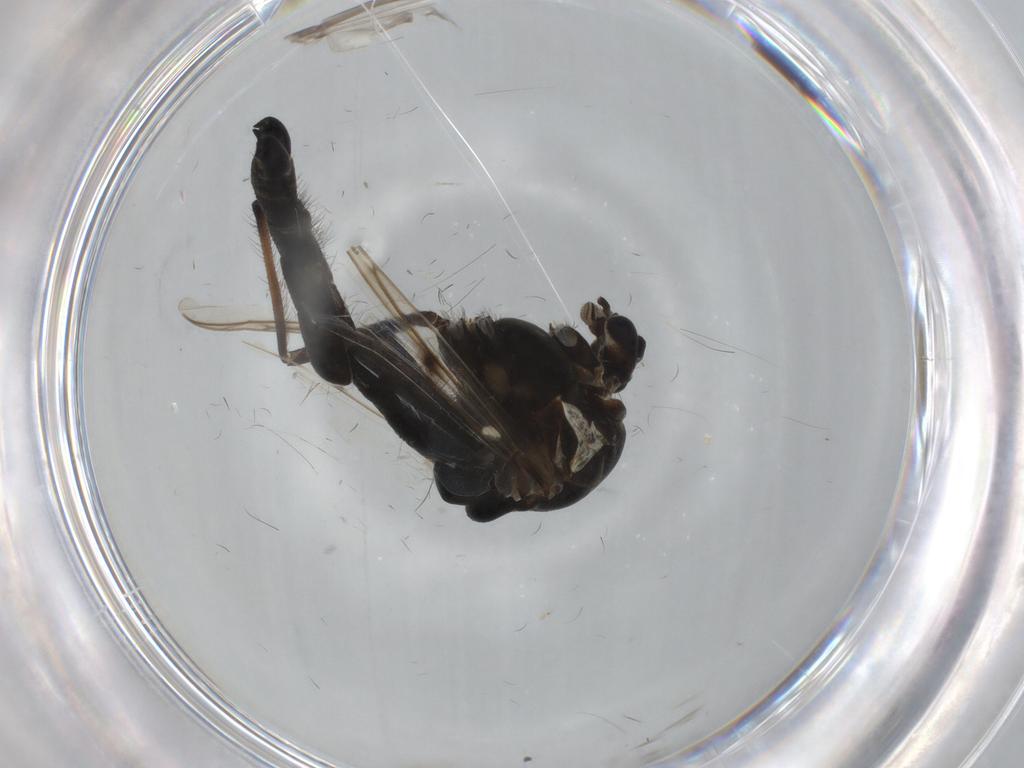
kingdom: Animalia
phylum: Arthropoda
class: Insecta
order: Diptera
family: Chironomidae
